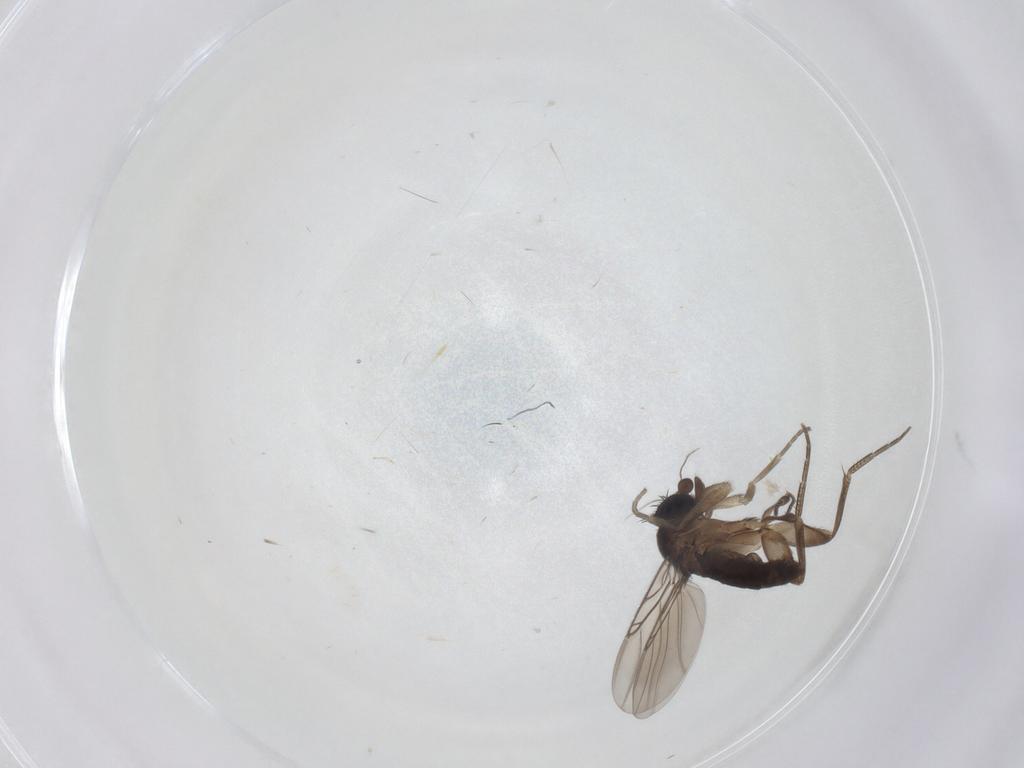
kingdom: Animalia
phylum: Arthropoda
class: Insecta
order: Diptera
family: Phoridae
